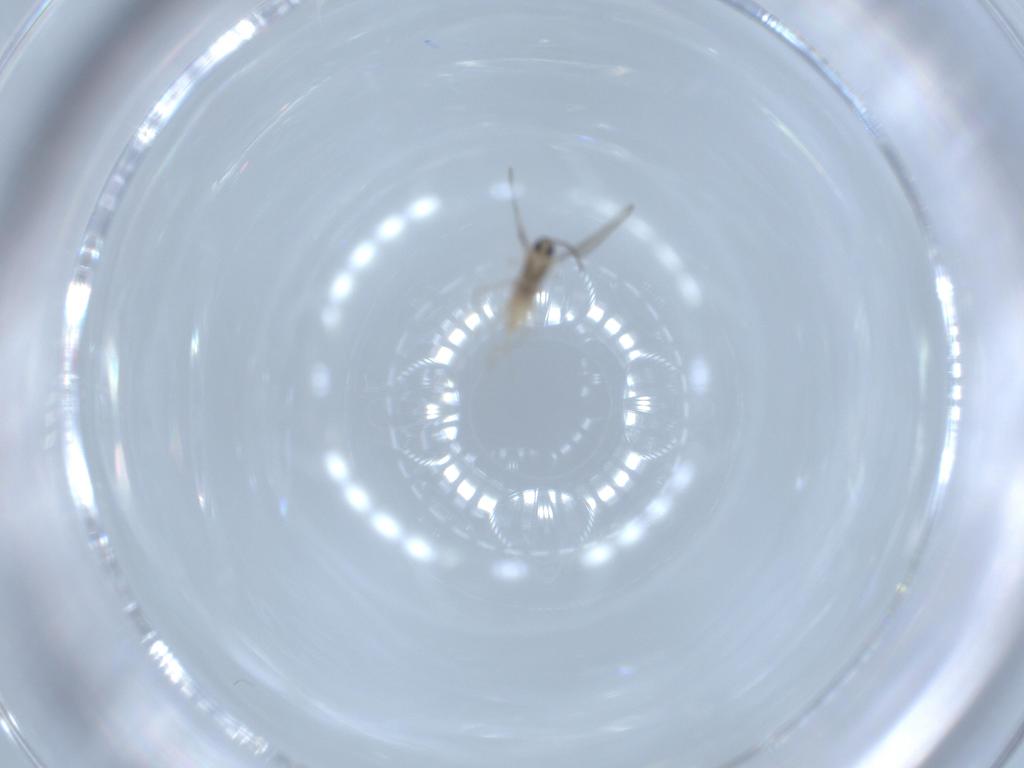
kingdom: Animalia
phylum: Arthropoda
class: Insecta
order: Diptera
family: Cecidomyiidae
